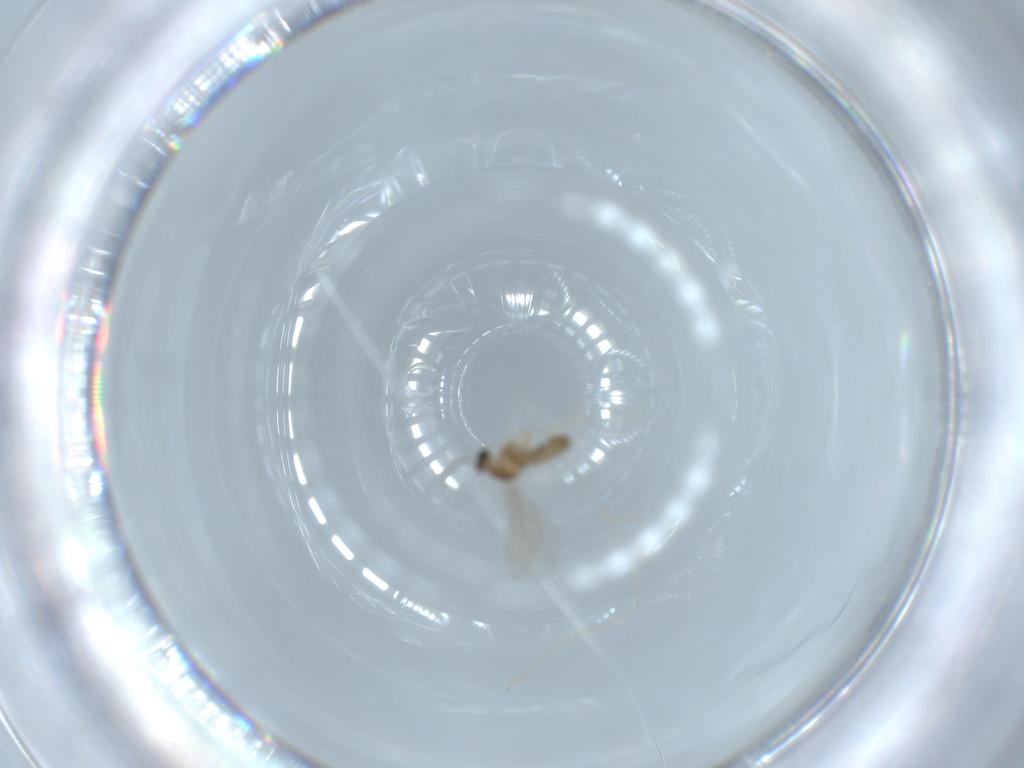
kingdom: Animalia
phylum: Arthropoda
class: Insecta
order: Diptera
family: Cecidomyiidae
